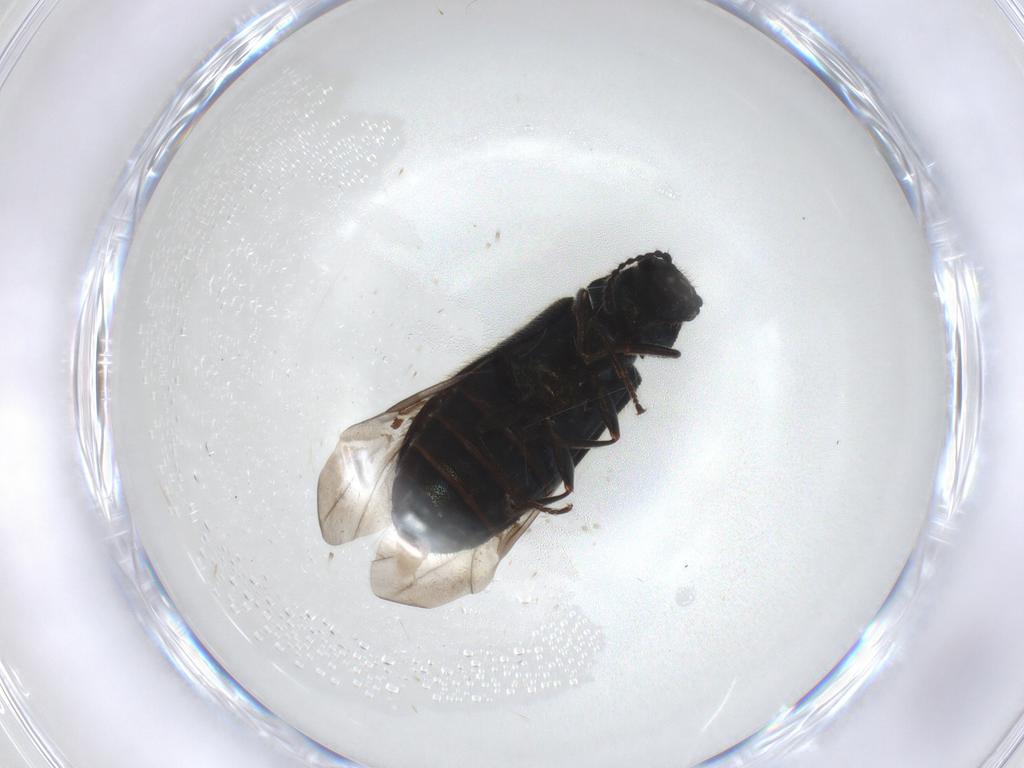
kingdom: Animalia
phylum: Arthropoda
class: Insecta
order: Coleoptera
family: Melyridae
